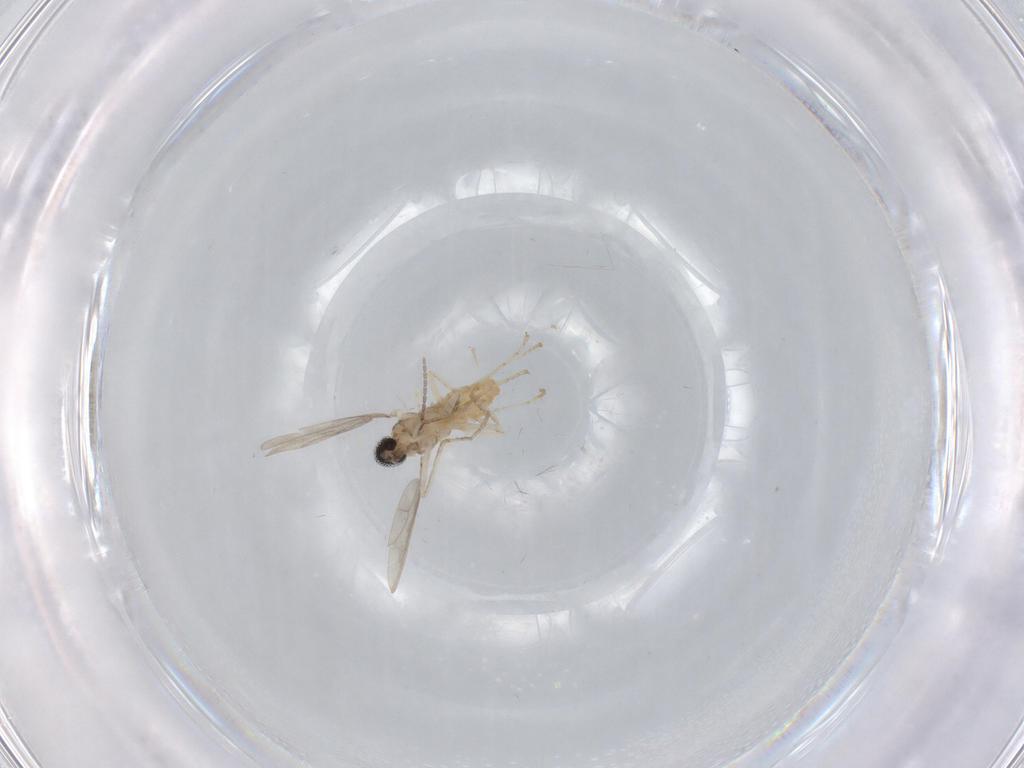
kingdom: Animalia
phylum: Arthropoda
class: Insecta
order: Diptera
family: Cecidomyiidae
